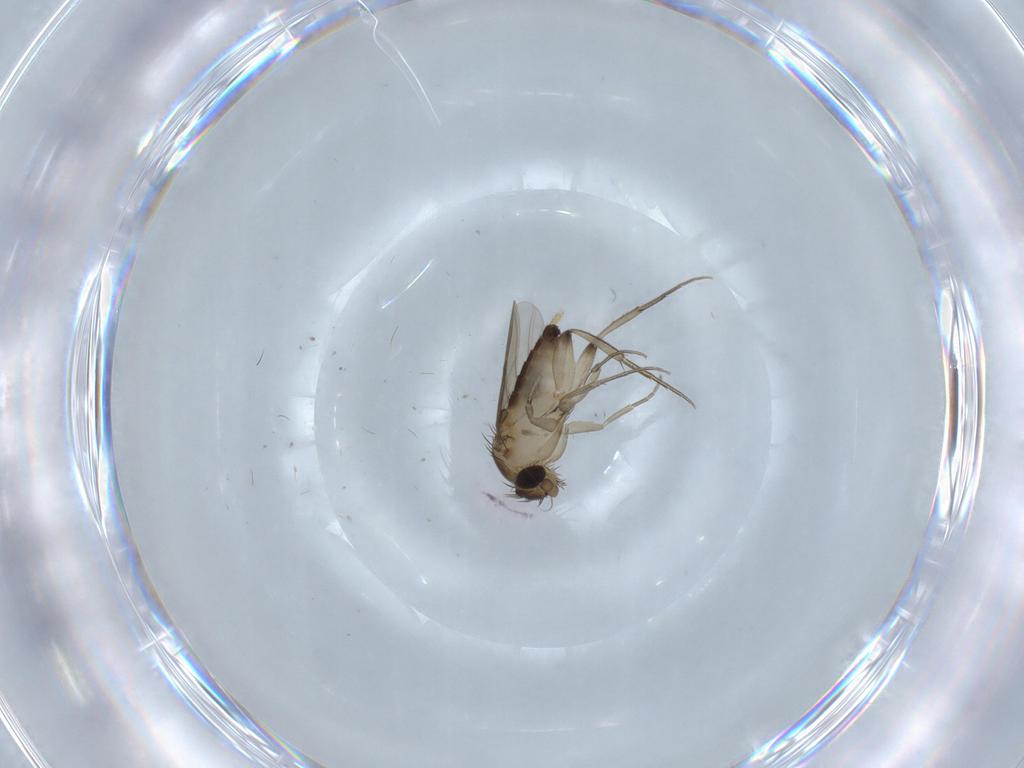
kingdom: Animalia
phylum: Arthropoda
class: Insecta
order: Diptera
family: Phoridae
